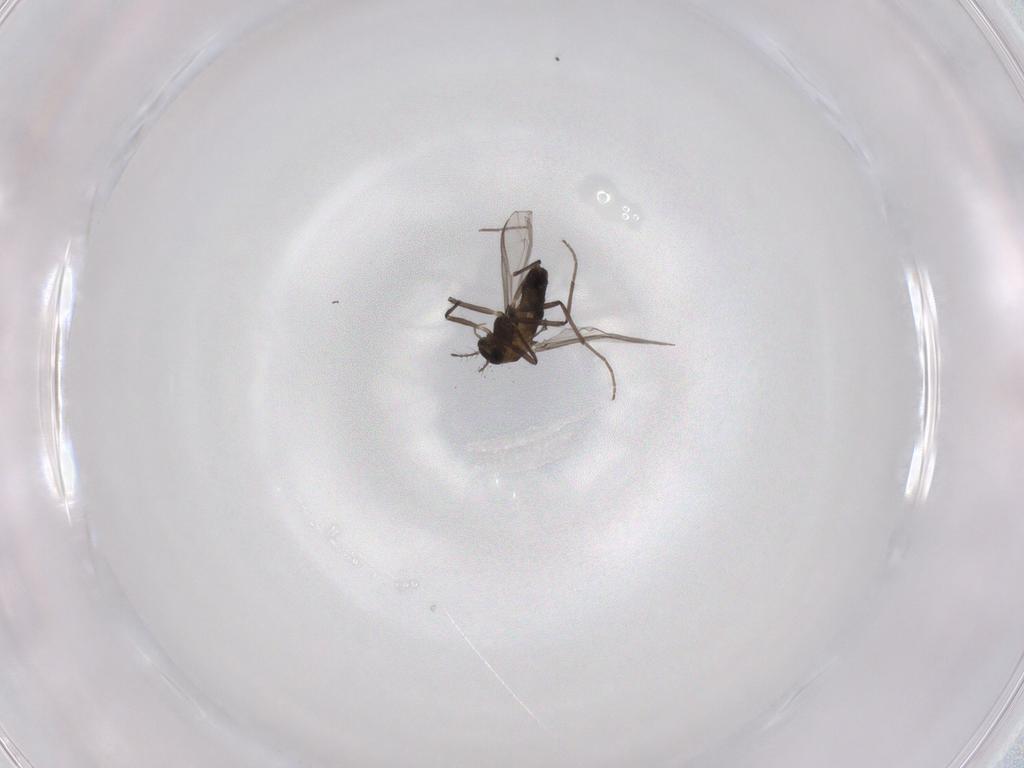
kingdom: Animalia
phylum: Arthropoda
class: Insecta
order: Diptera
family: Chironomidae
